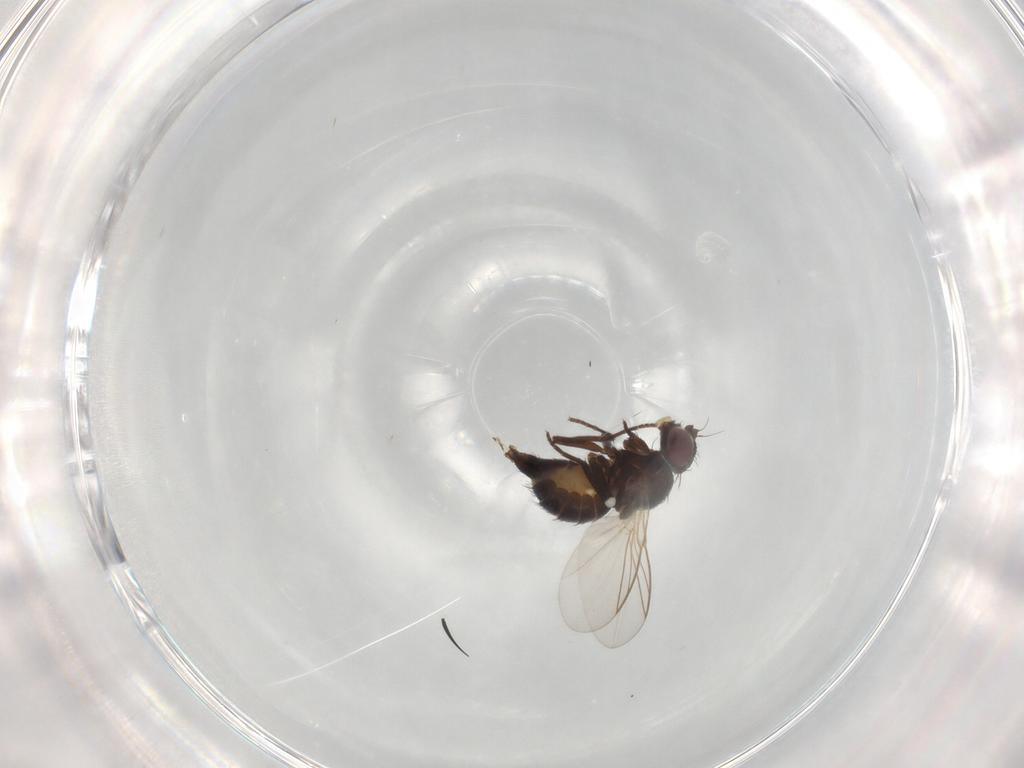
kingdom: Animalia
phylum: Arthropoda
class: Insecta
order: Diptera
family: Agromyzidae
